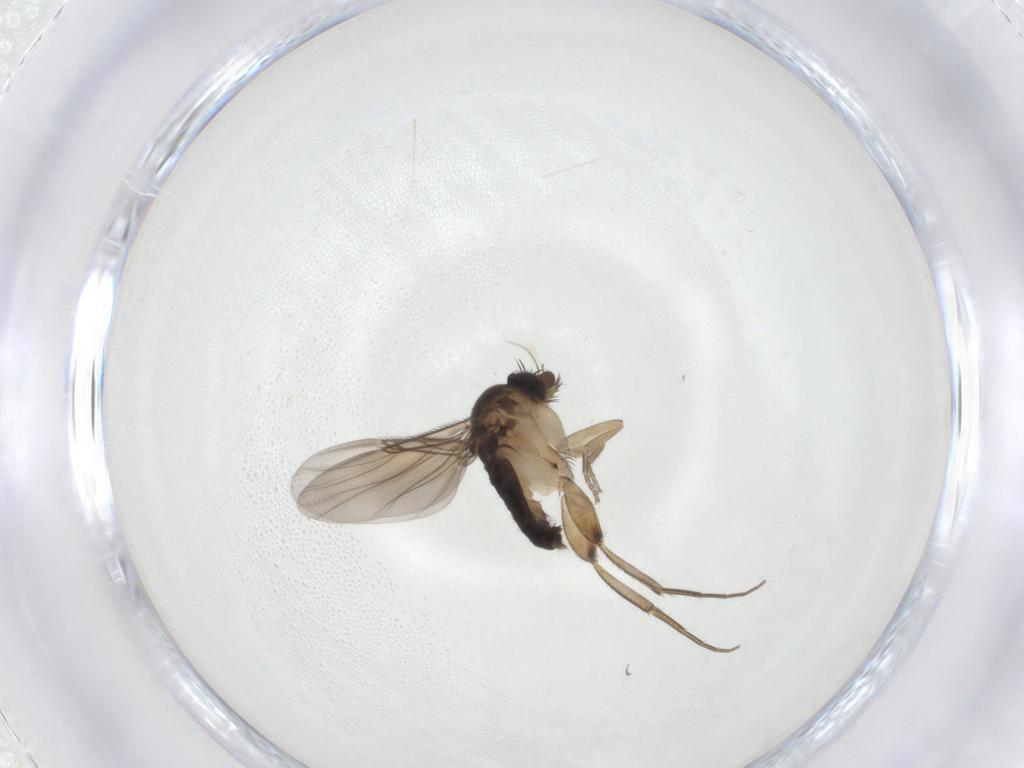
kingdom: Animalia
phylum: Arthropoda
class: Insecta
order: Diptera
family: Phoridae
